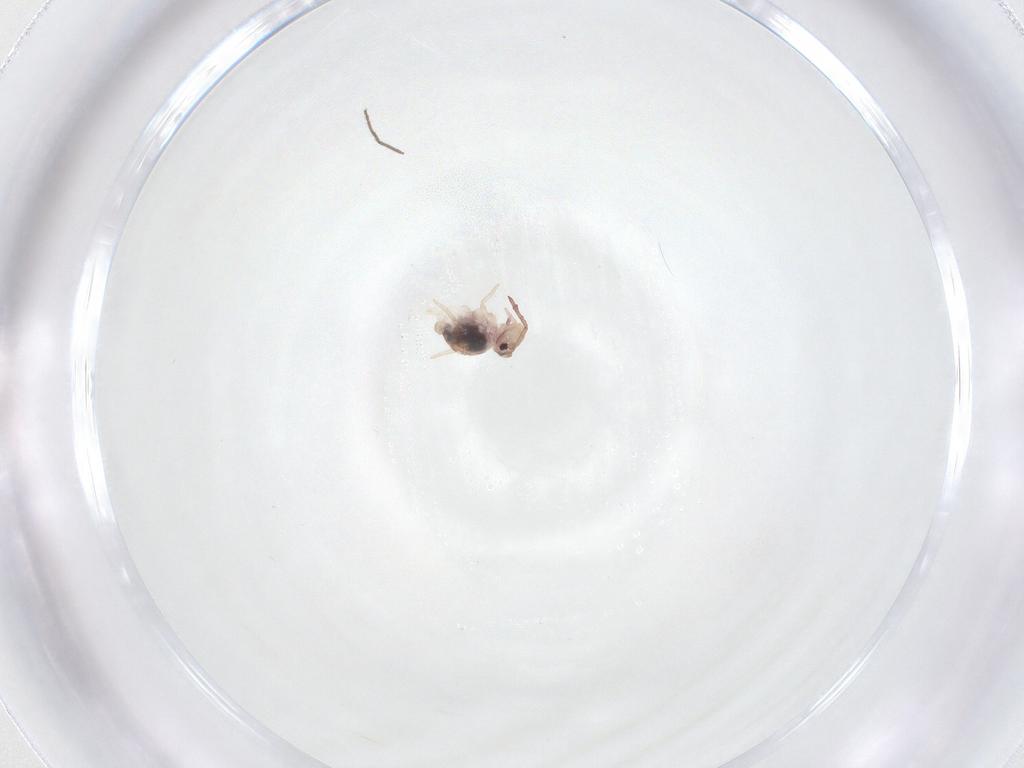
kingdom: Animalia
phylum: Arthropoda
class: Collembola
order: Symphypleona
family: Dicyrtomidae
